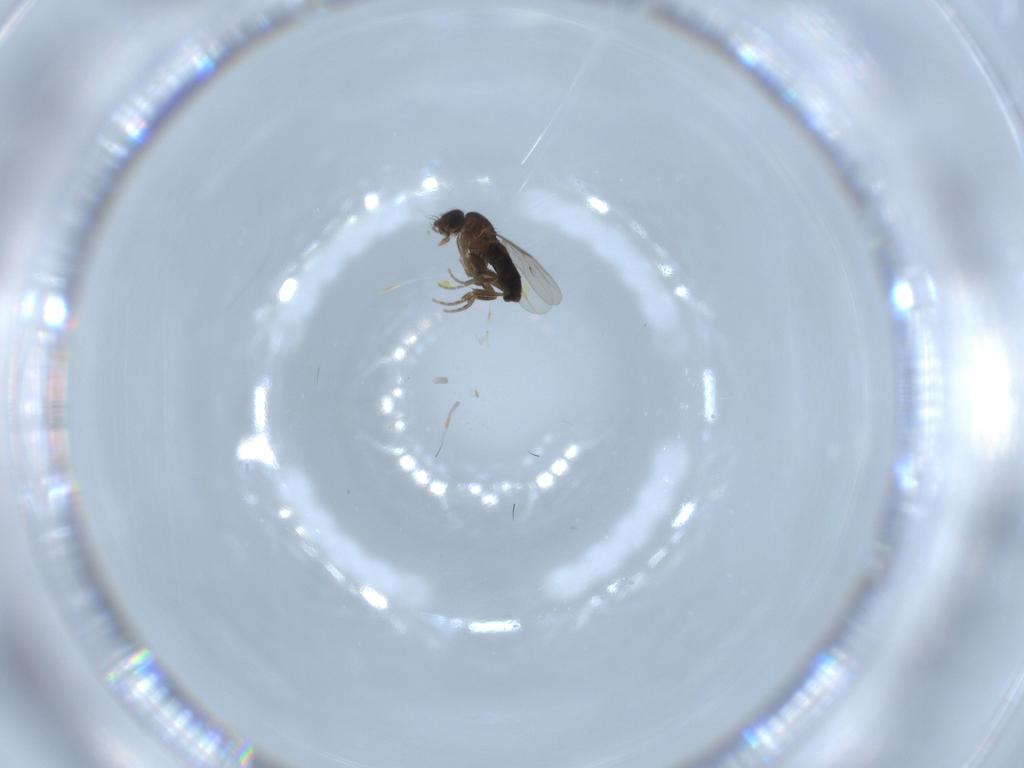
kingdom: Animalia
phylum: Arthropoda
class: Insecta
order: Diptera
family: Phoridae
